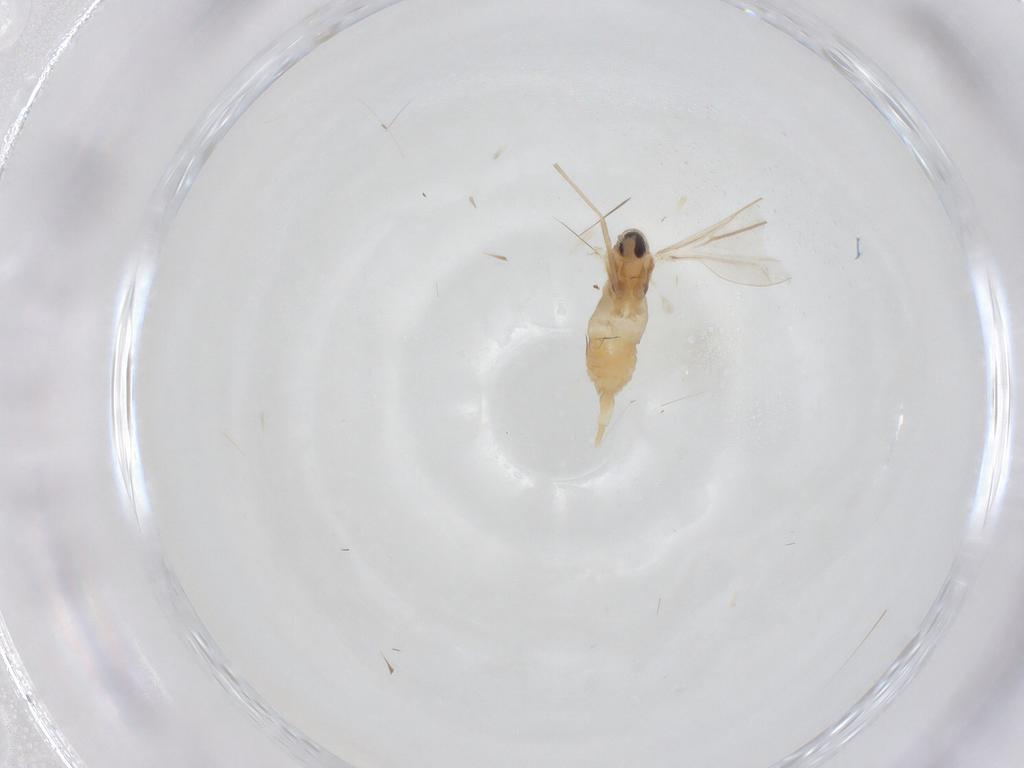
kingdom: Animalia
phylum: Arthropoda
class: Insecta
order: Diptera
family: Cecidomyiidae
